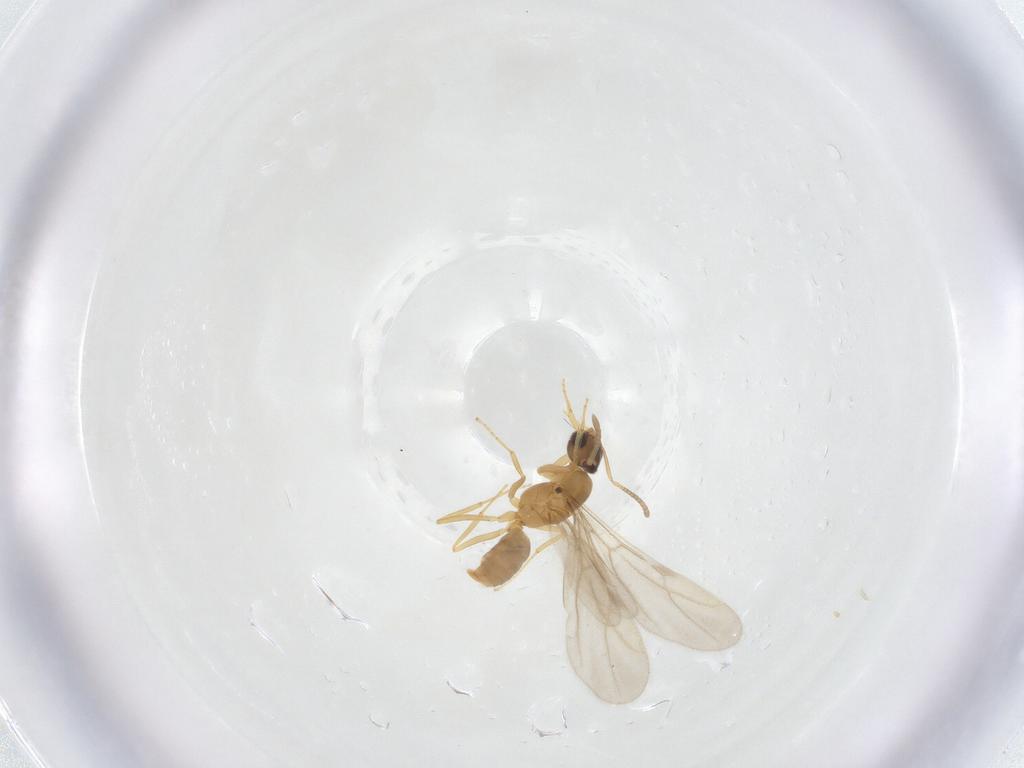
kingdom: Animalia
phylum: Arthropoda
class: Insecta
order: Hymenoptera
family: Formicidae
